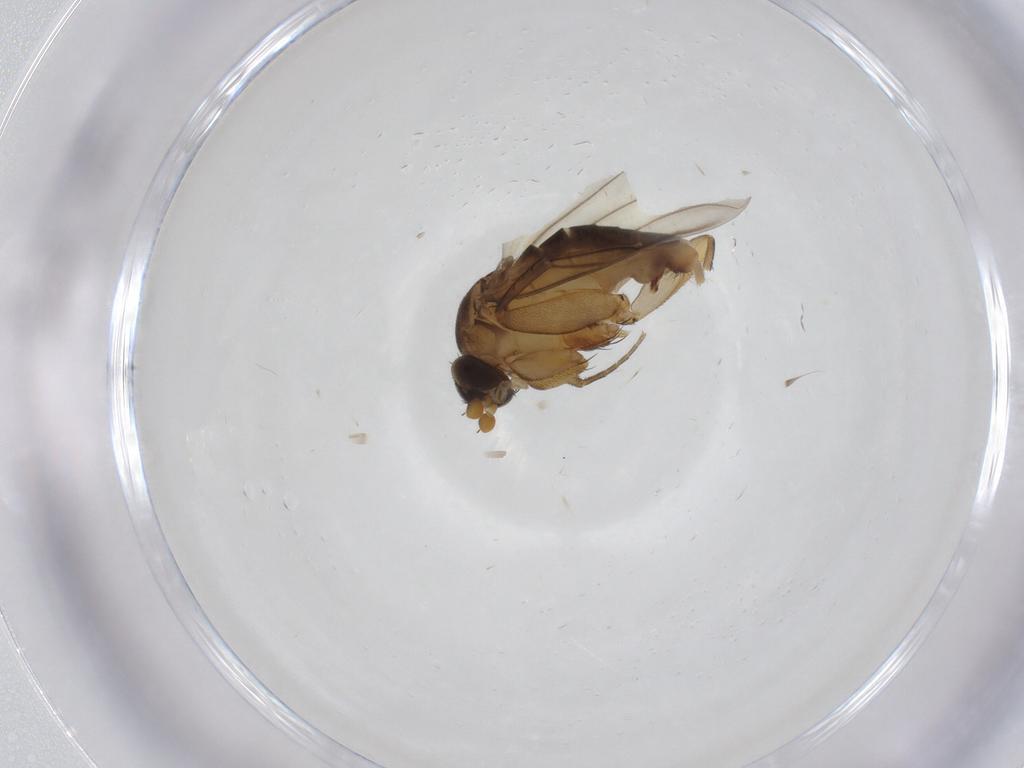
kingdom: Animalia
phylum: Arthropoda
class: Insecta
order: Diptera
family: Phoridae
